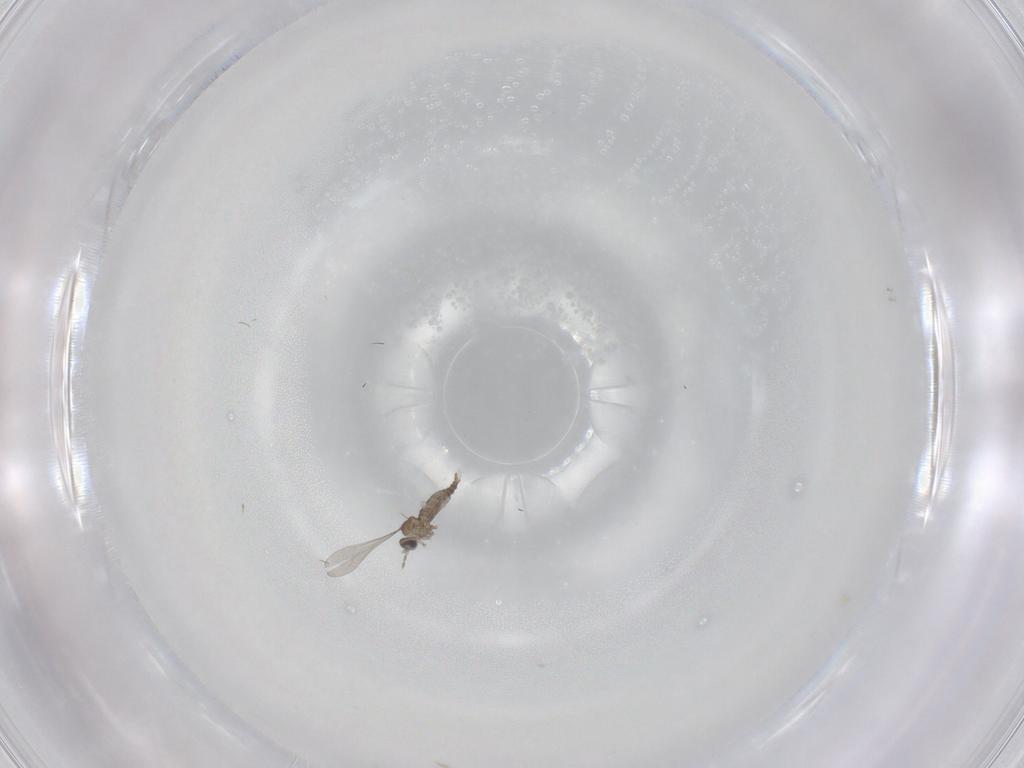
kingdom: Animalia
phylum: Arthropoda
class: Insecta
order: Diptera
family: Cecidomyiidae
